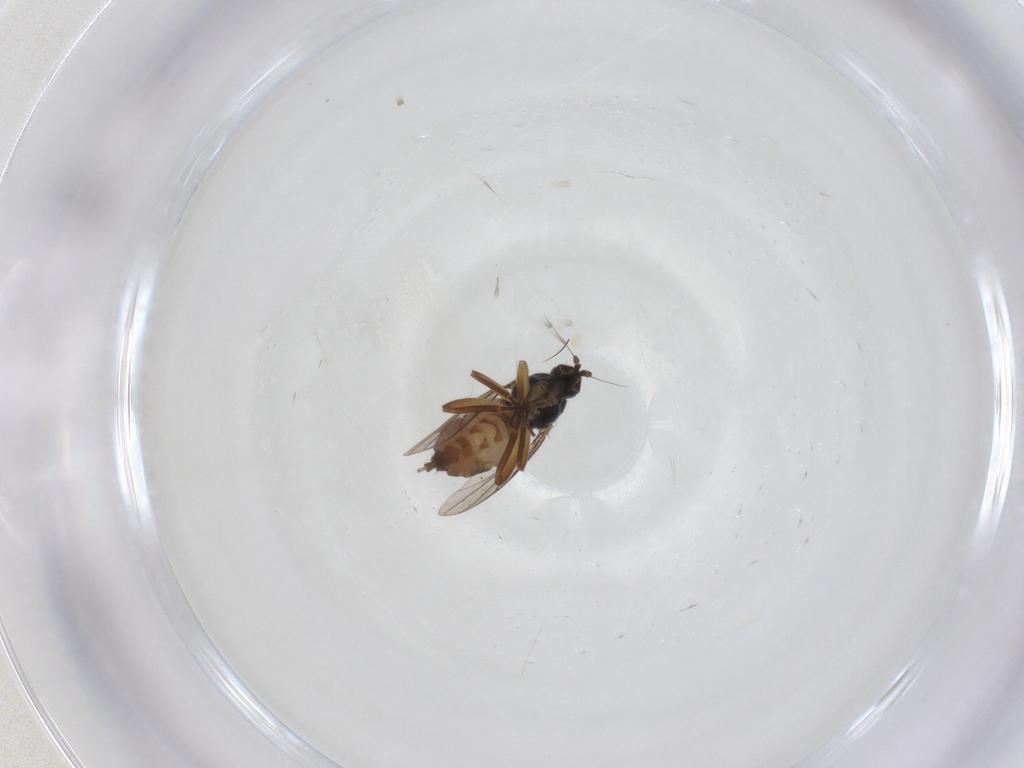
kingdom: Animalia
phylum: Arthropoda
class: Insecta
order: Diptera
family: Hybotidae
